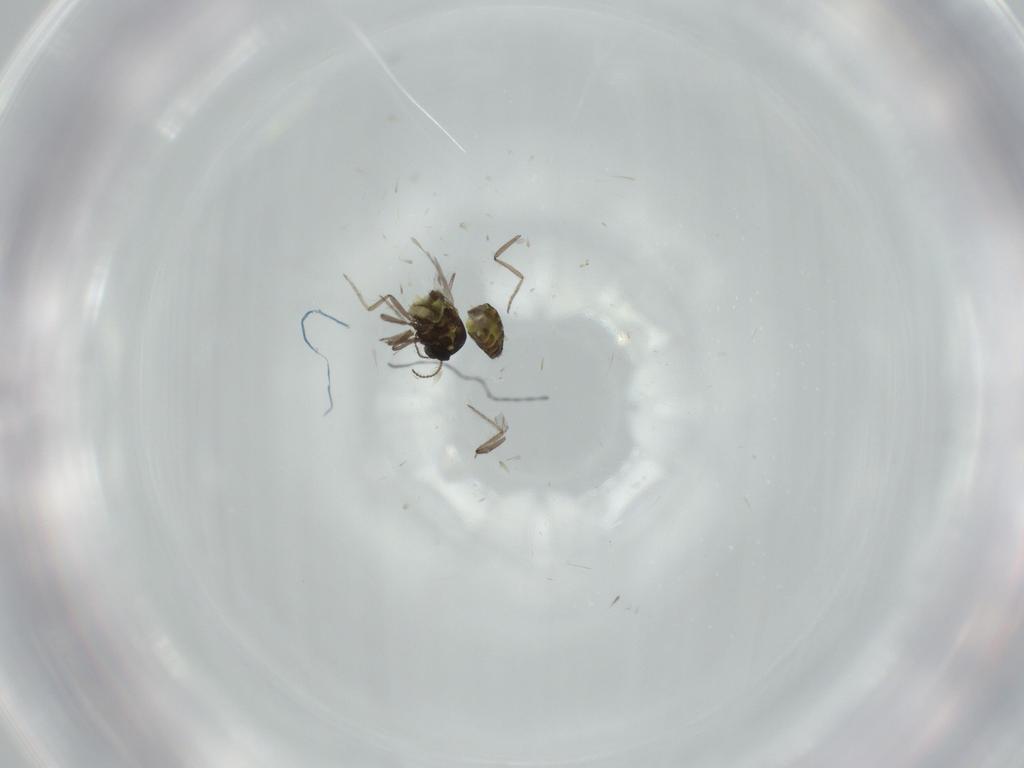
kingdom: Animalia
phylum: Arthropoda
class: Insecta
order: Diptera
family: Ceratopogonidae
